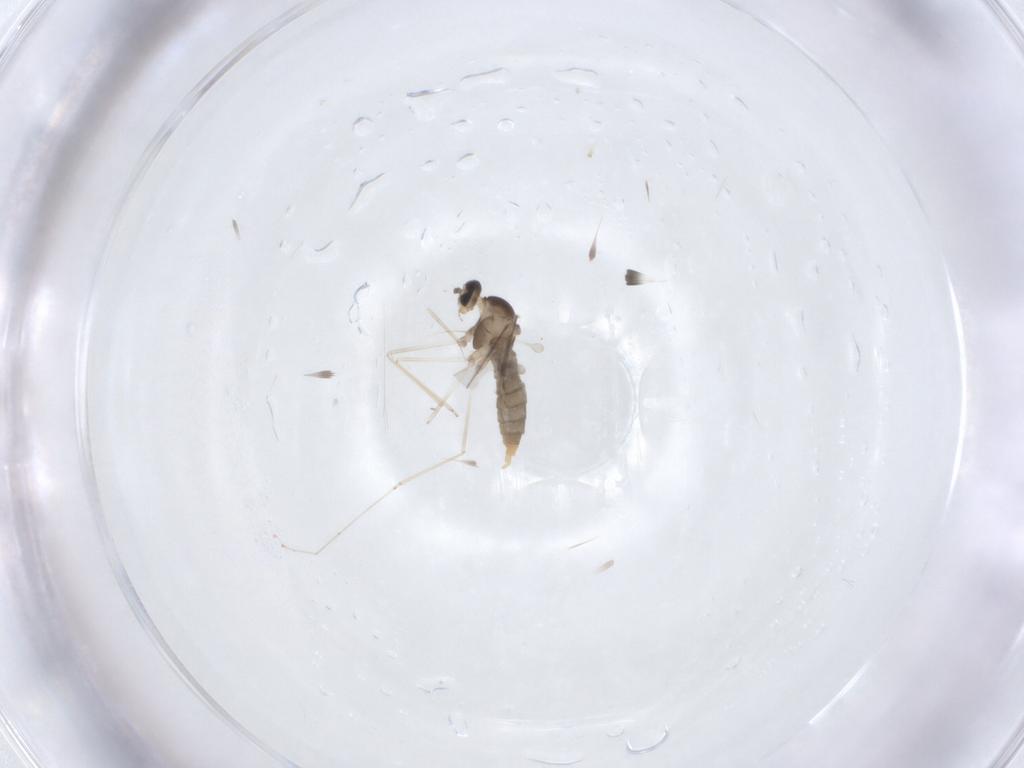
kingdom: Animalia
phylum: Arthropoda
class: Insecta
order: Diptera
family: Cecidomyiidae
